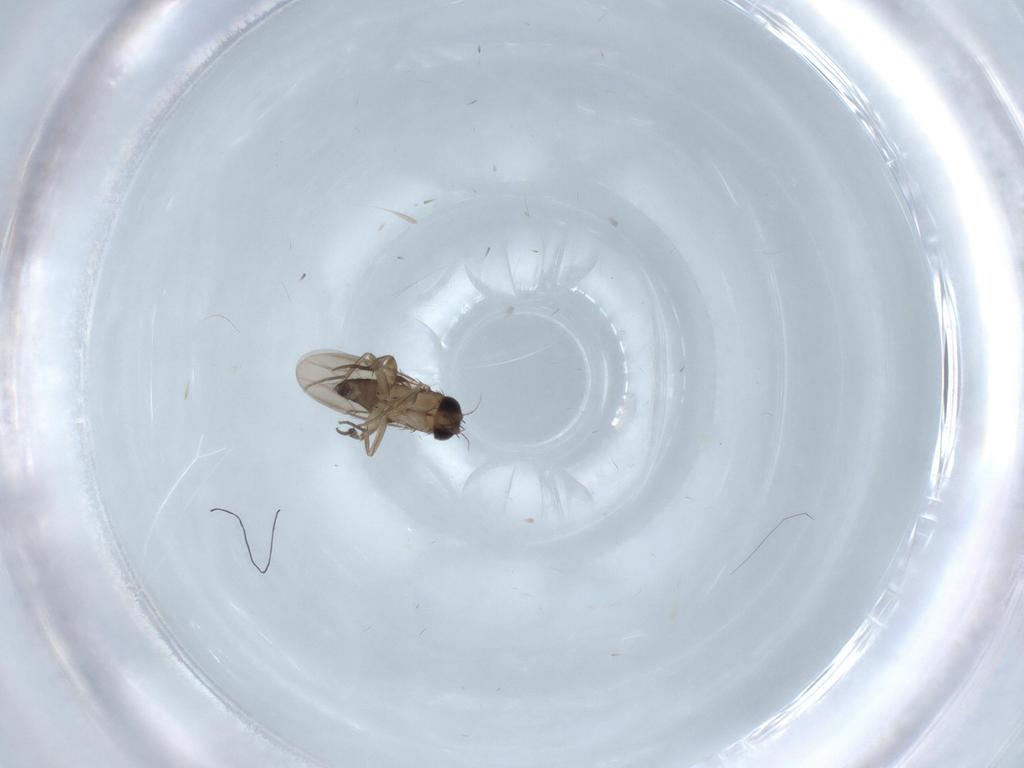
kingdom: Animalia
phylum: Arthropoda
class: Insecta
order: Diptera
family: Phoridae
